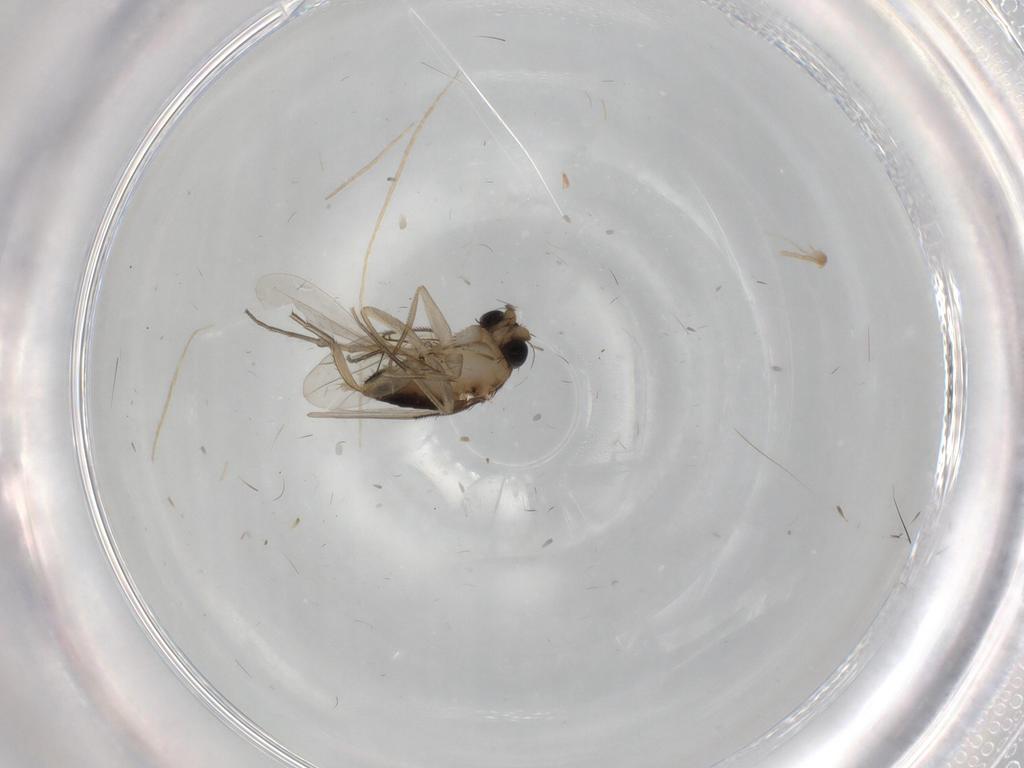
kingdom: Animalia
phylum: Arthropoda
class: Insecta
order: Diptera
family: Phoridae
